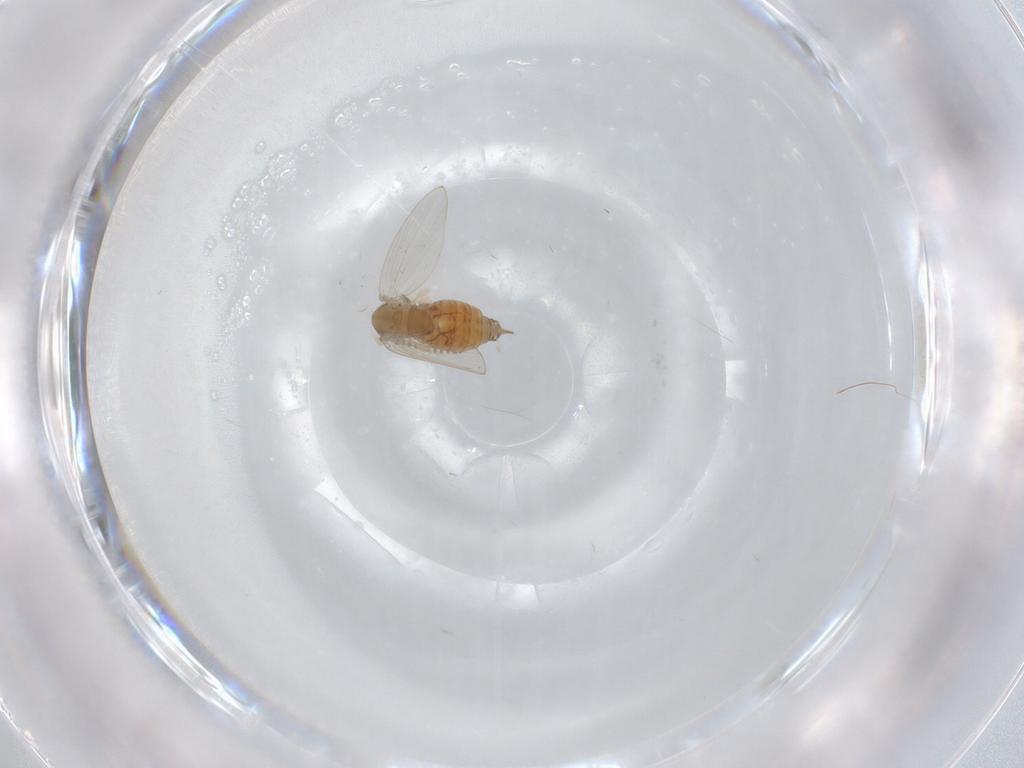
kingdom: Animalia
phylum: Arthropoda
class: Insecta
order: Diptera
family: Psychodidae
